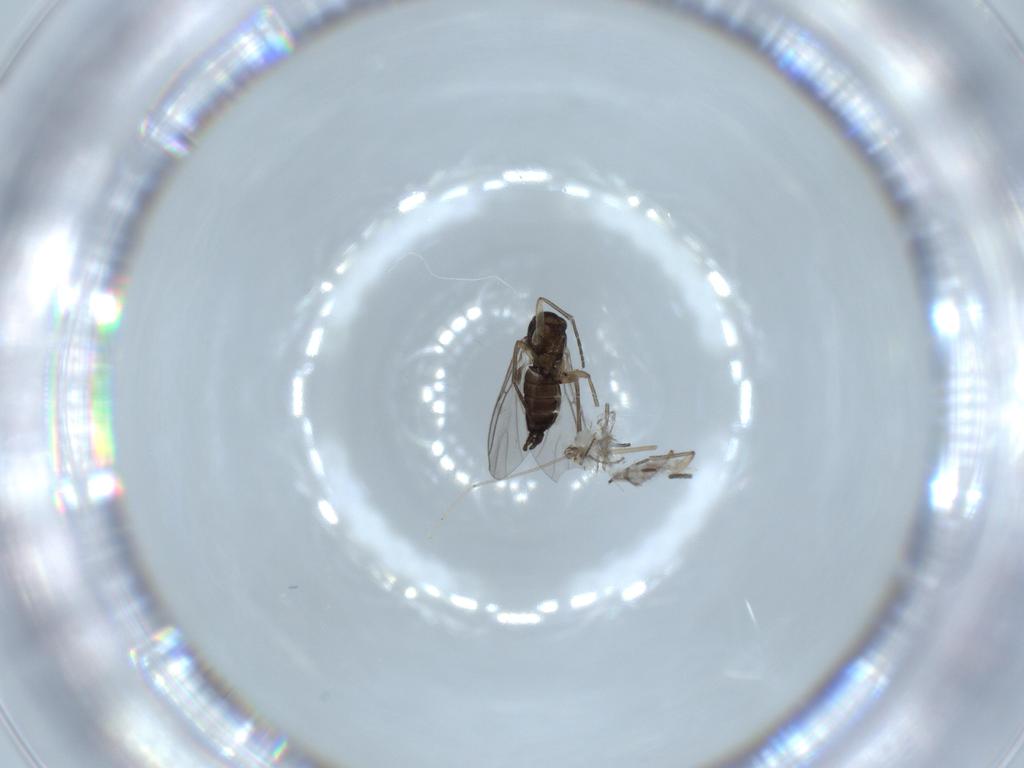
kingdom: Animalia
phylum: Arthropoda
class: Insecta
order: Diptera
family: Ceratopogonidae
